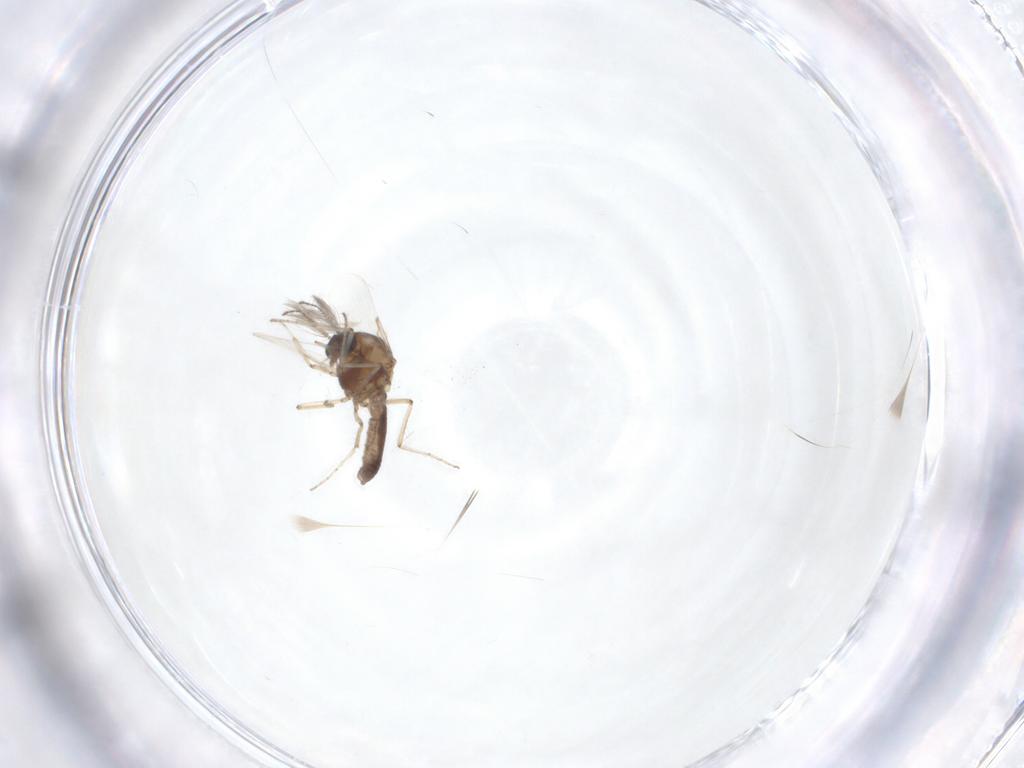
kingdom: Animalia
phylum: Arthropoda
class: Insecta
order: Diptera
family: Ceratopogonidae
